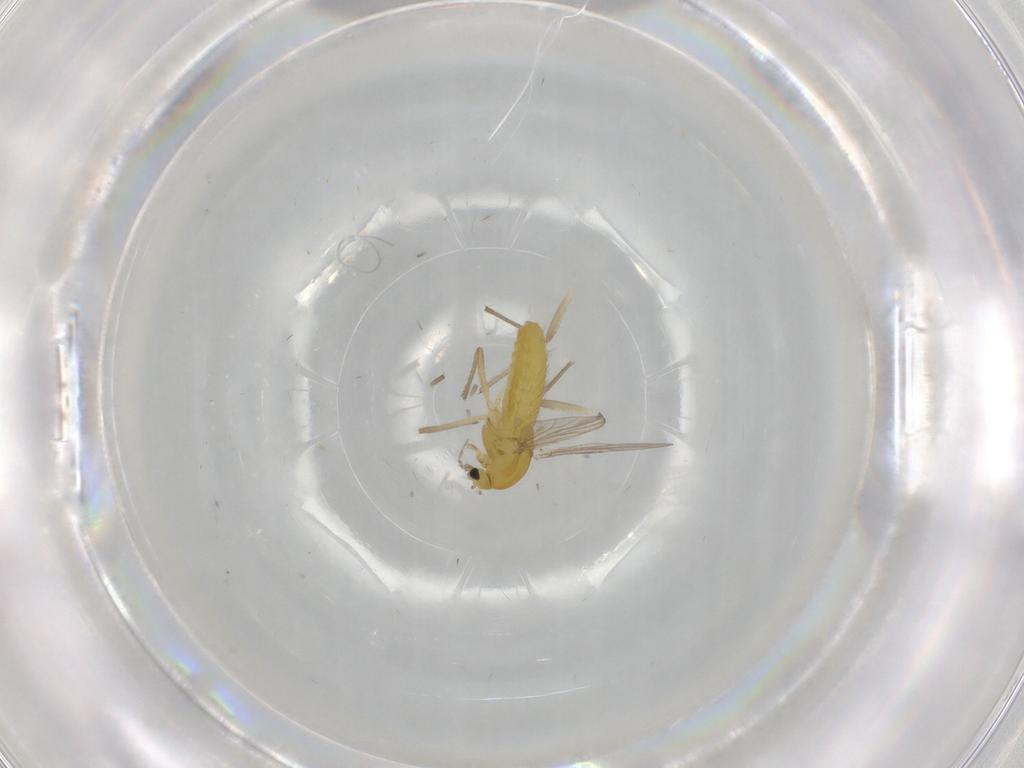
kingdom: Animalia
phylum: Arthropoda
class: Insecta
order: Diptera
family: Chironomidae
